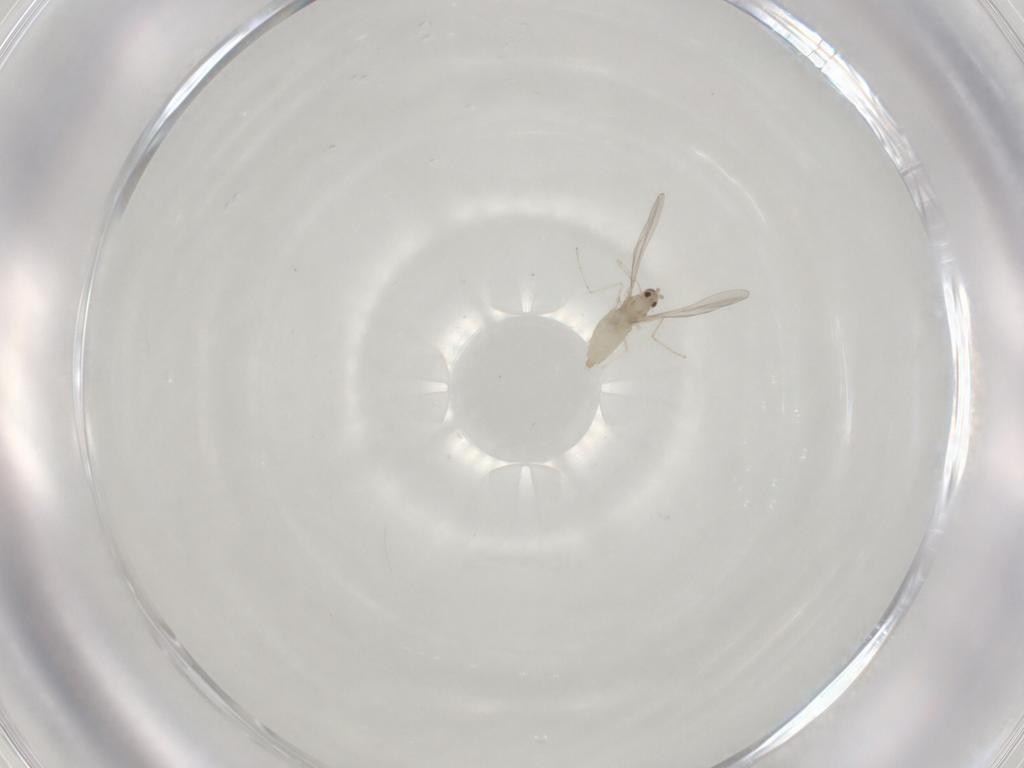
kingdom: Animalia
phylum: Arthropoda
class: Insecta
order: Diptera
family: Cecidomyiidae
